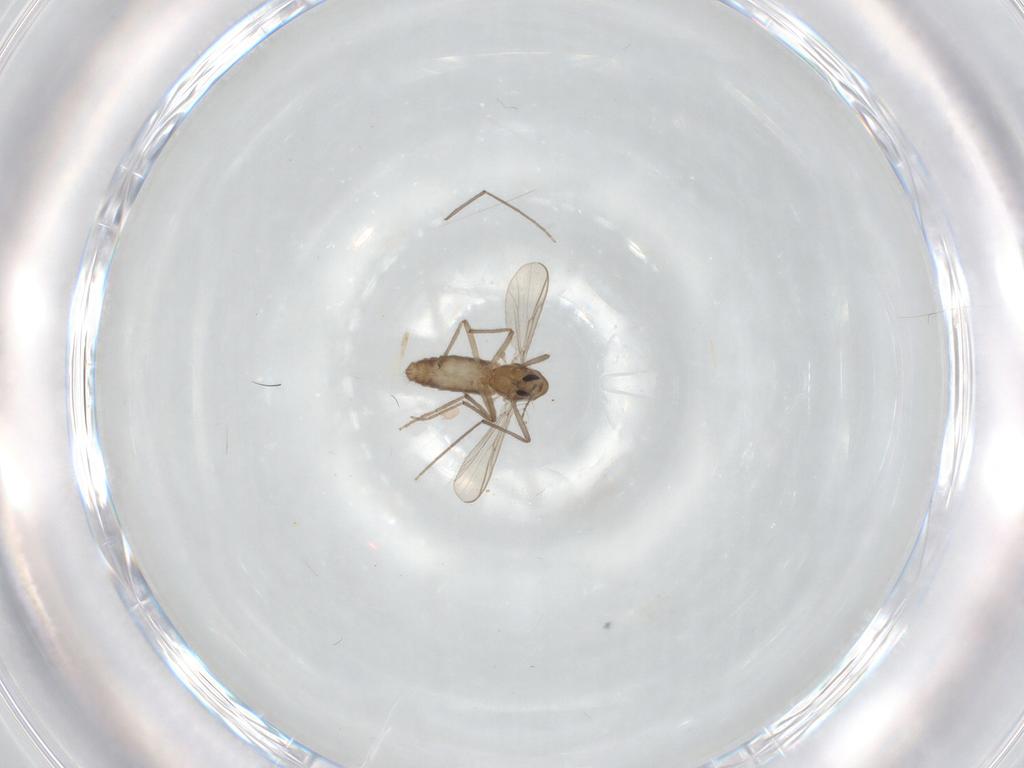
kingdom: Animalia
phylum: Arthropoda
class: Insecta
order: Diptera
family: Chironomidae
